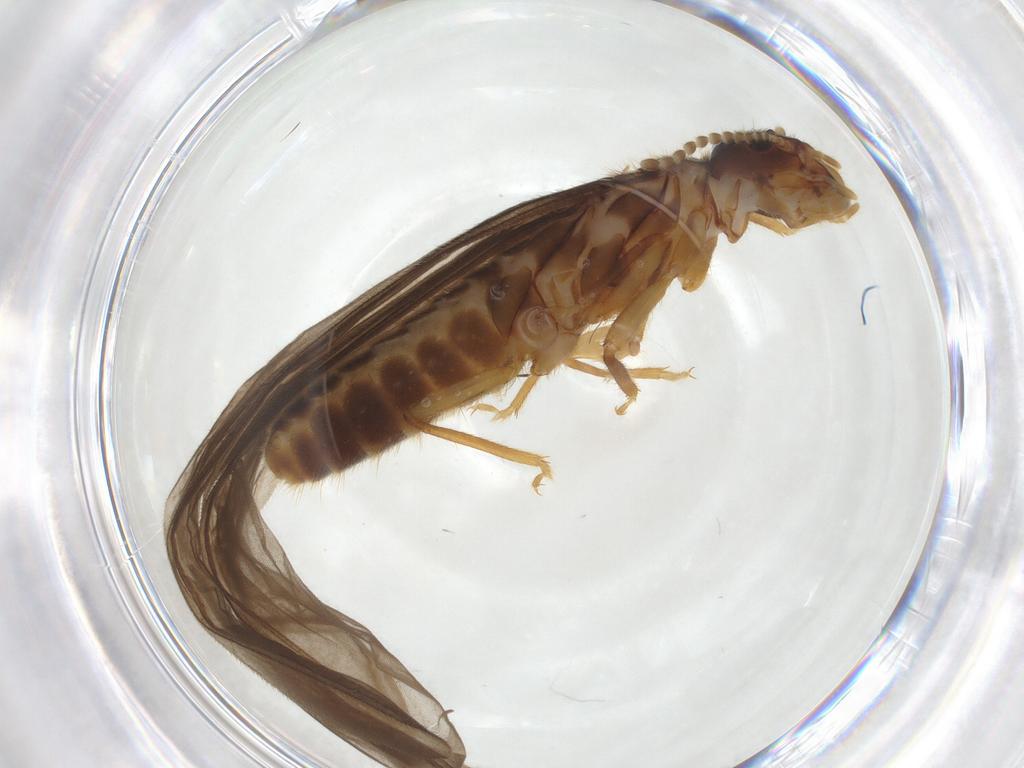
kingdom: Animalia
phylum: Arthropoda
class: Insecta
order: Blattodea
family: Termitidae
